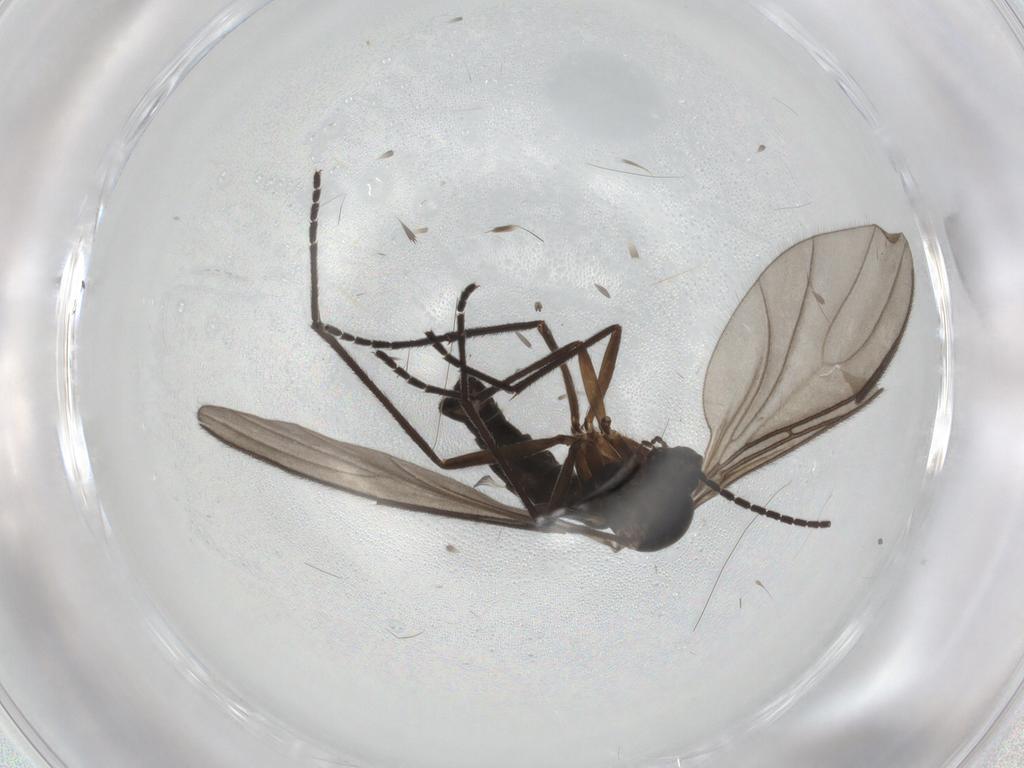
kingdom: Animalia
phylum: Arthropoda
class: Insecta
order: Diptera
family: Sciaridae
